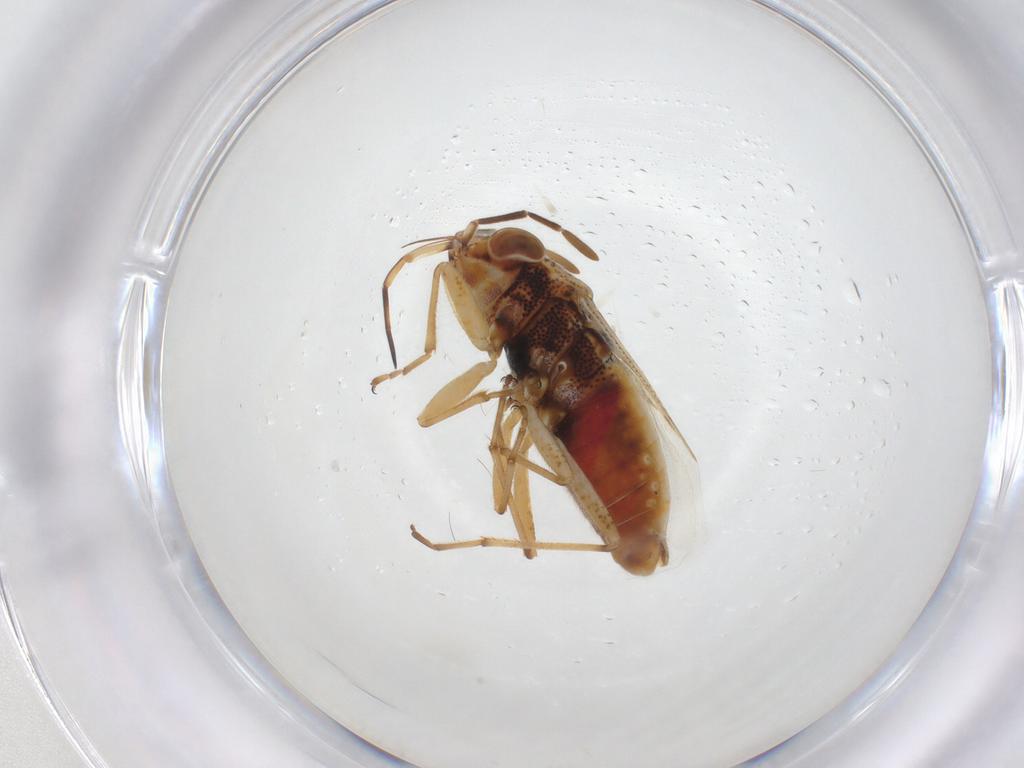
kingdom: Animalia
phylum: Arthropoda
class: Insecta
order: Hemiptera
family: Geocoridae
